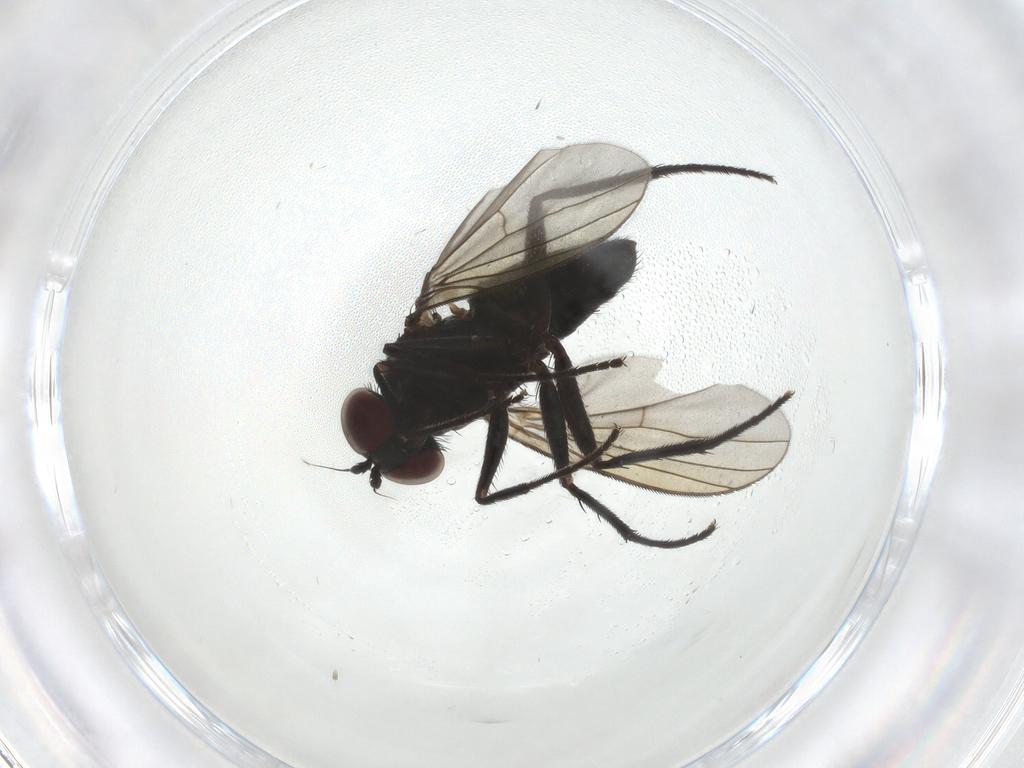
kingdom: Animalia
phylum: Arthropoda
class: Insecta
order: Diptera
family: Dolichopodidae
